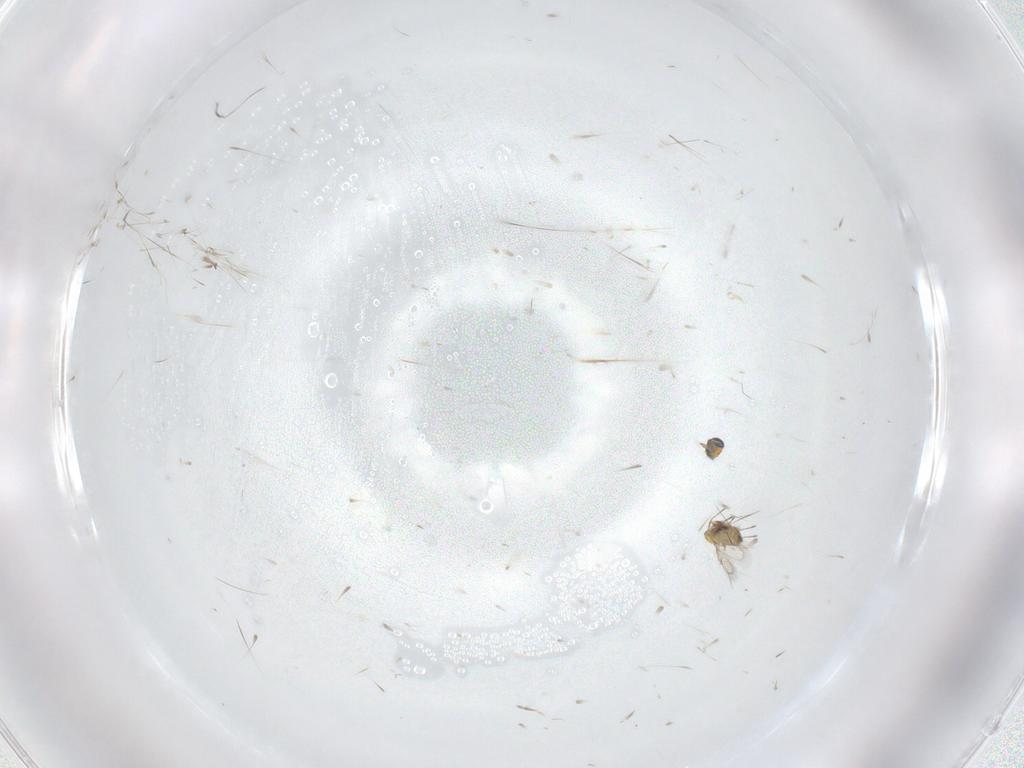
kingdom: Animalia
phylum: Arthropoda
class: Insecta
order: Hymenoptera
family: Trichogrammatidae
